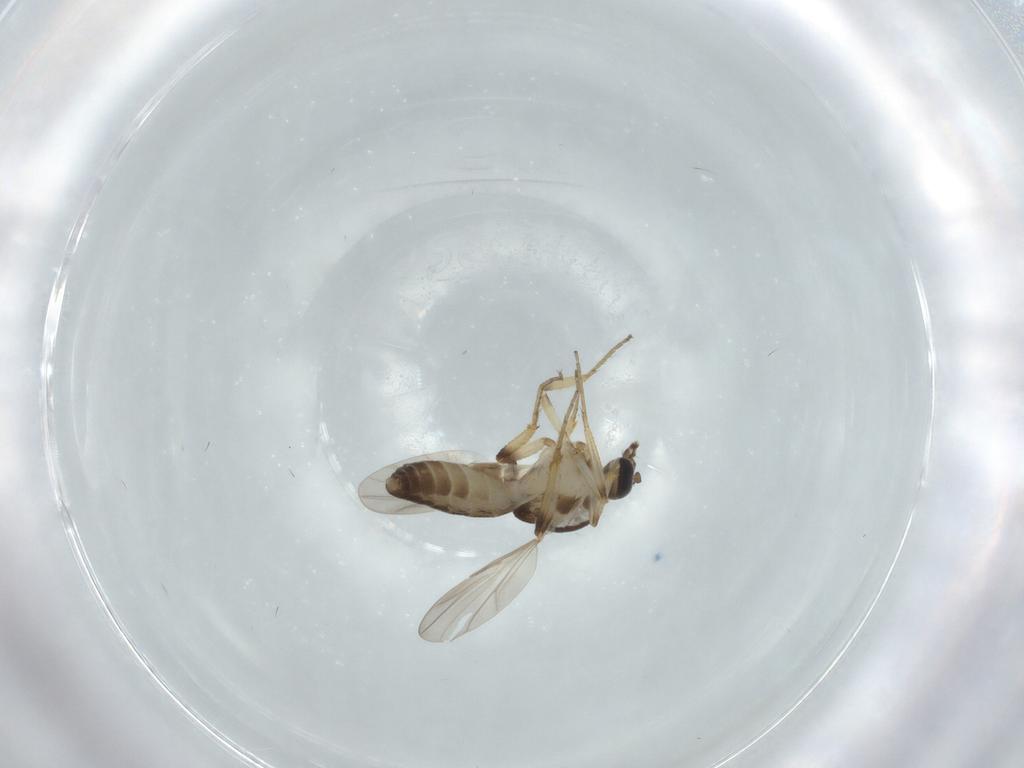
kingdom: Animalia
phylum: Arthropoda
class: Insecta
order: Diptera
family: Ceratopogonidae
